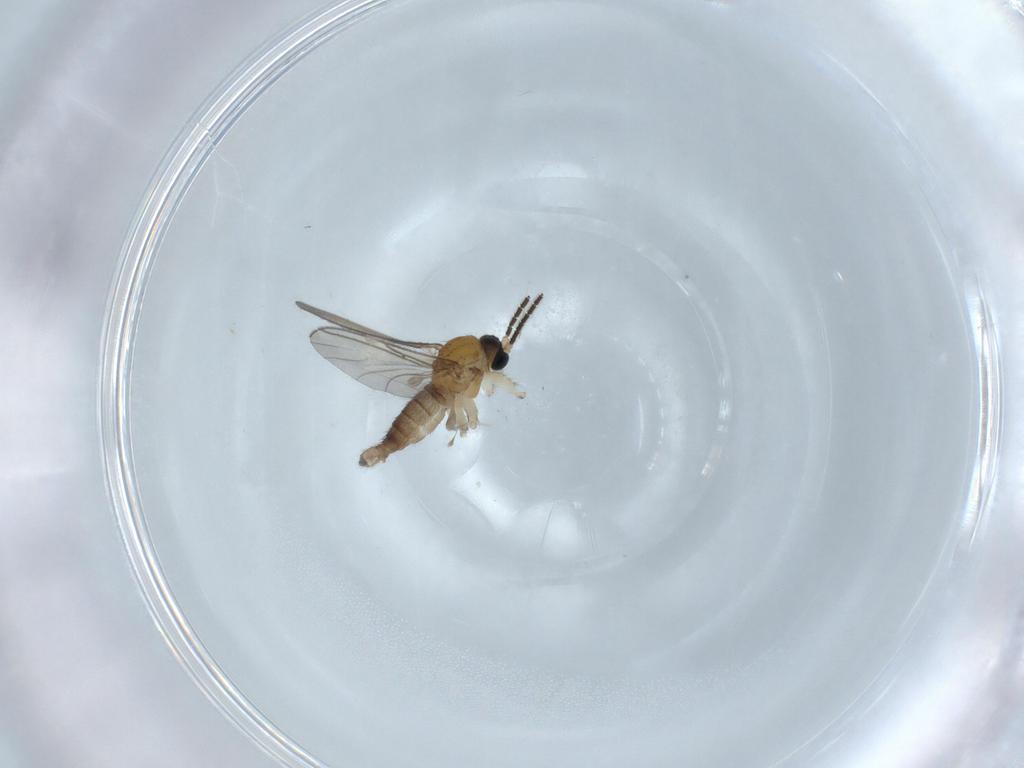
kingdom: Animalia
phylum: Arthropoda
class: Insecta
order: Diptera
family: Sciaridae
